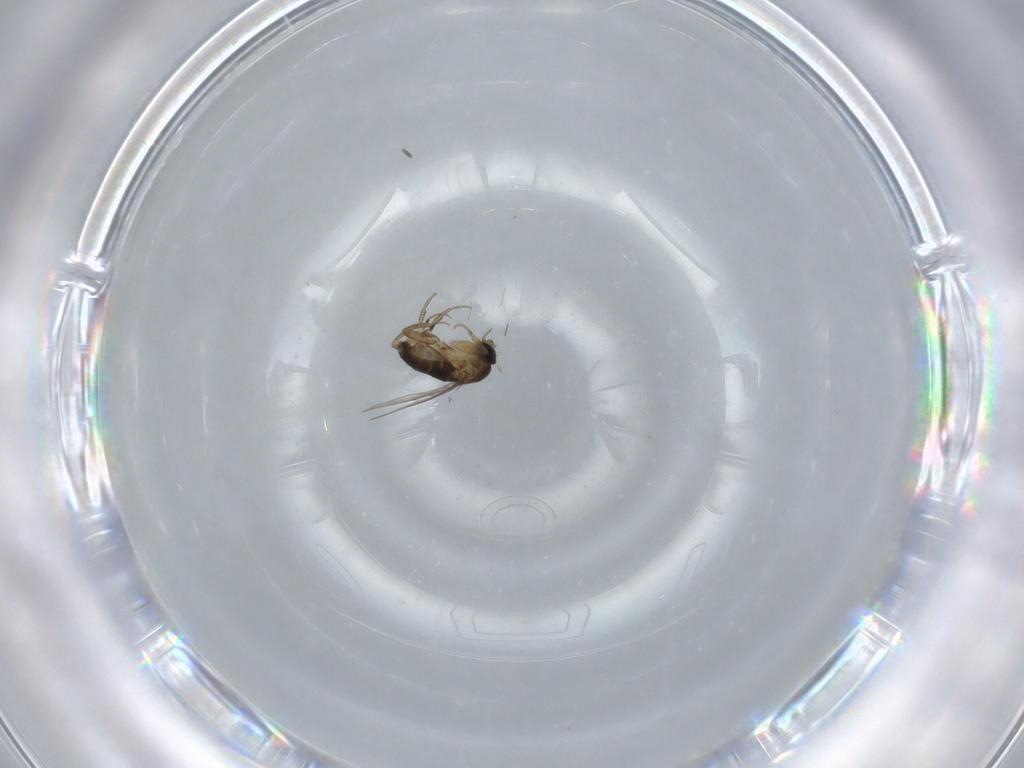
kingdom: Animalia
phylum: Arthropoda
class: Insecta
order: Diptera
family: Phoridae
